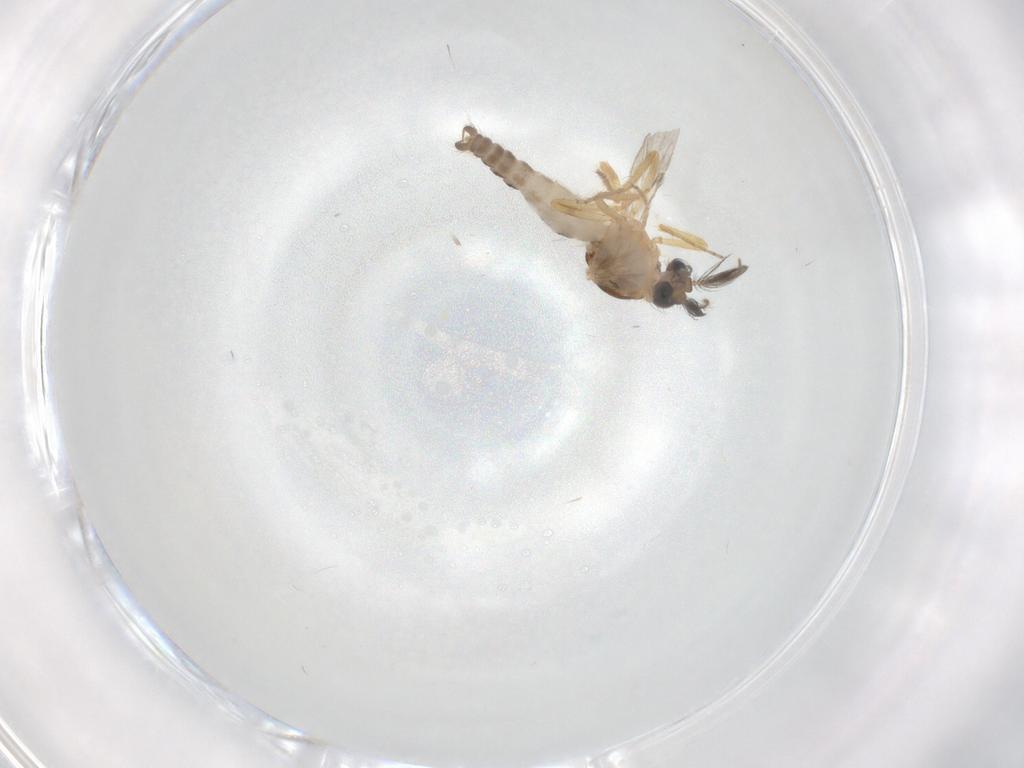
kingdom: Animalia
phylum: Arthropoda
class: Insecta
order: Diptera
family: Ceratopogonidae
